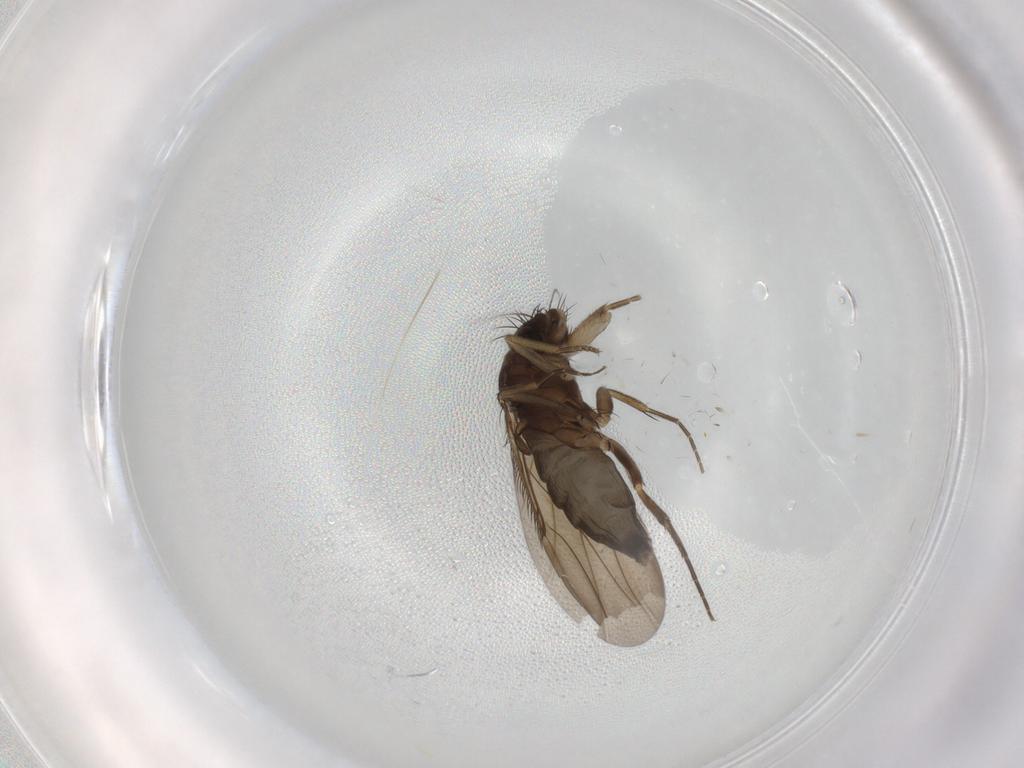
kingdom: Animalia
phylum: Arthropoda
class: Insecta
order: Diptera
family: Phoridae
